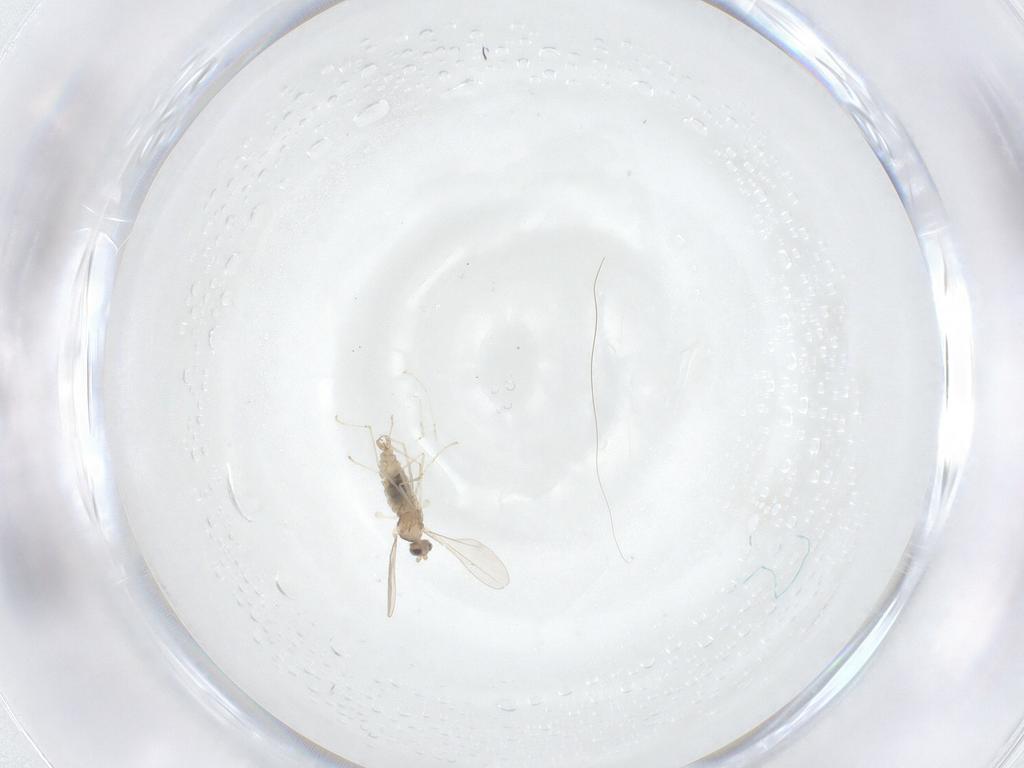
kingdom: Animalia
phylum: Arthropoda
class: Insecta
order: Diptera
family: Cecidomyiidae
